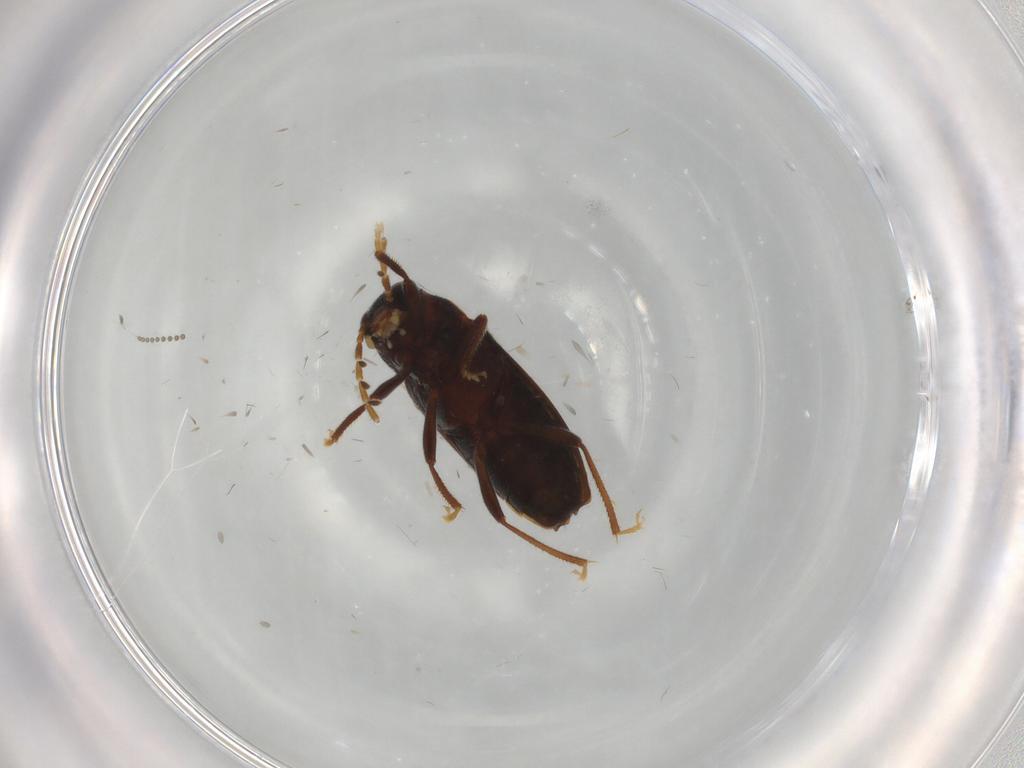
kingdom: Animalia
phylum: Arthropoda
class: Insecta
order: Coleoptera
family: Ptilodactylidae
